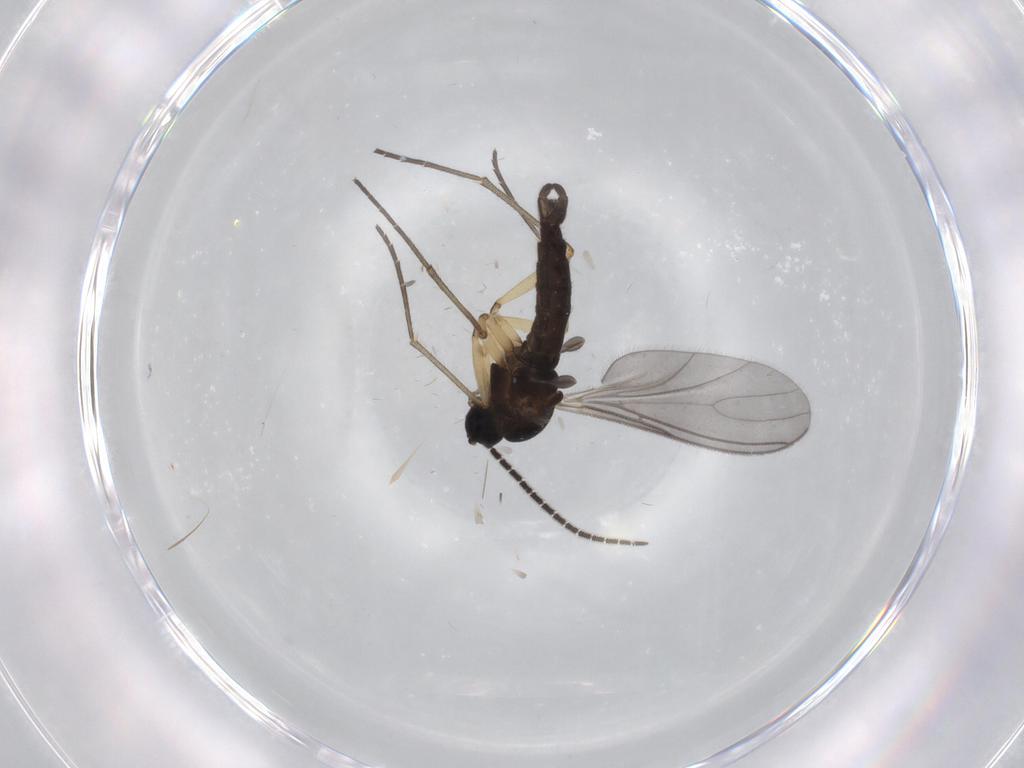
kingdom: Animalia
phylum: Arthropoda
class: Insecta
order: Diptera
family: Sciaridae
